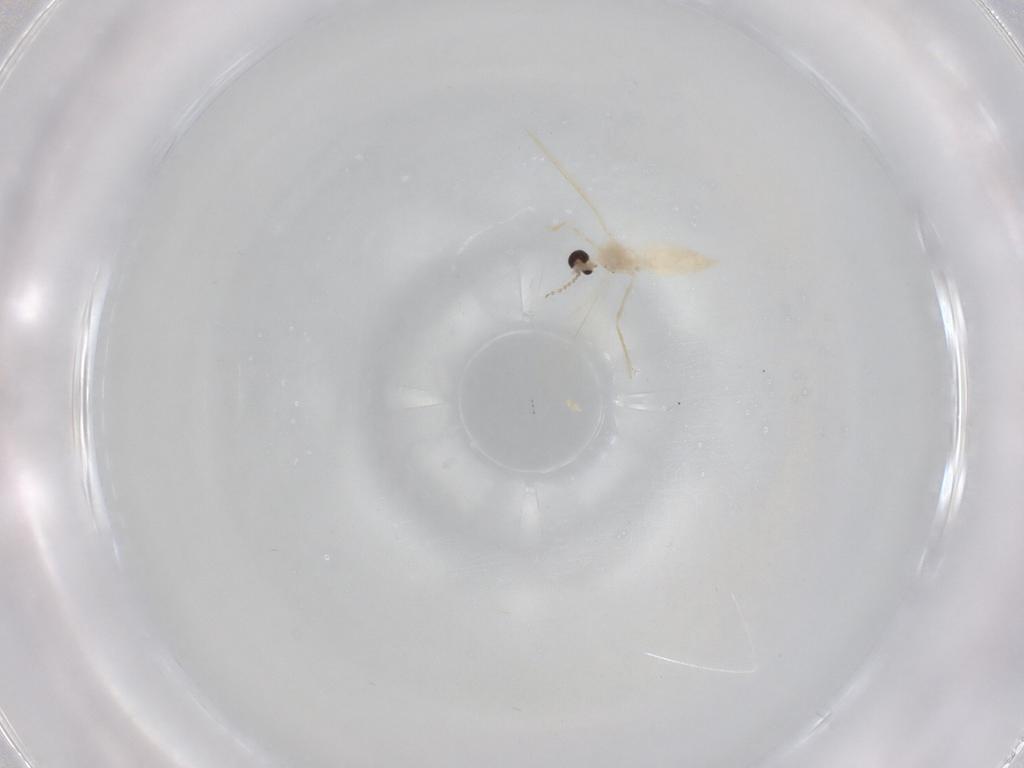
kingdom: Animalia
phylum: Arthropoda
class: Insecta
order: Diptera
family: Cecidomyiidae
